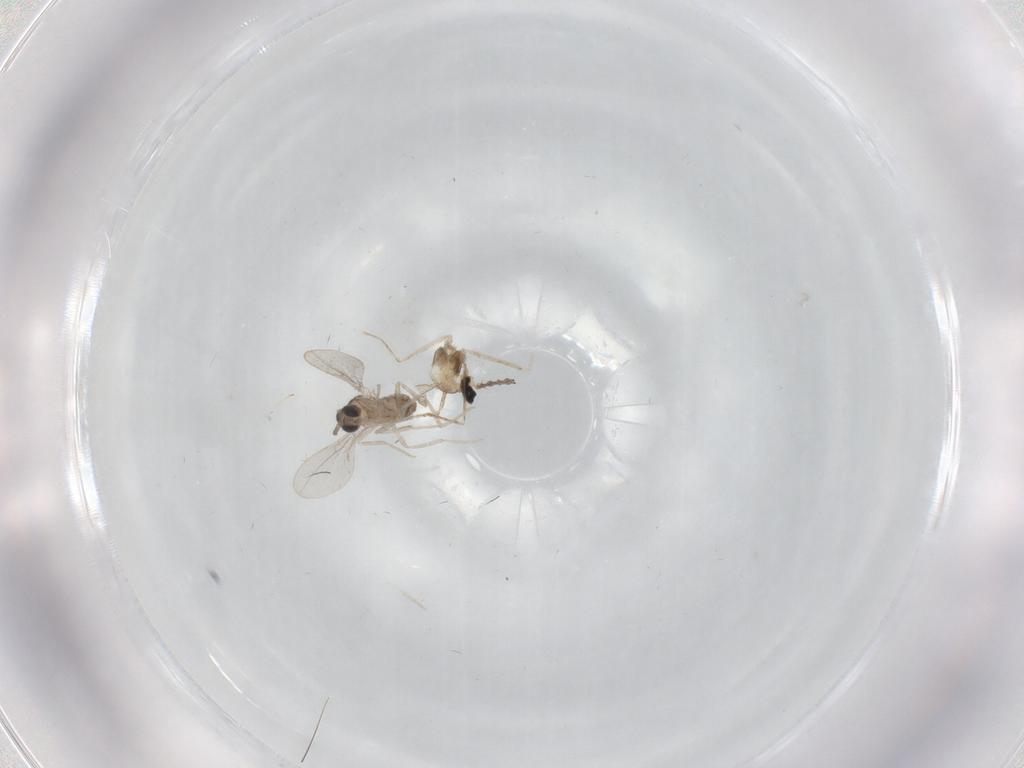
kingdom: Animalia
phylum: Arthropoda
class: Insecta
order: Diptera
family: Cecidomyiidae
